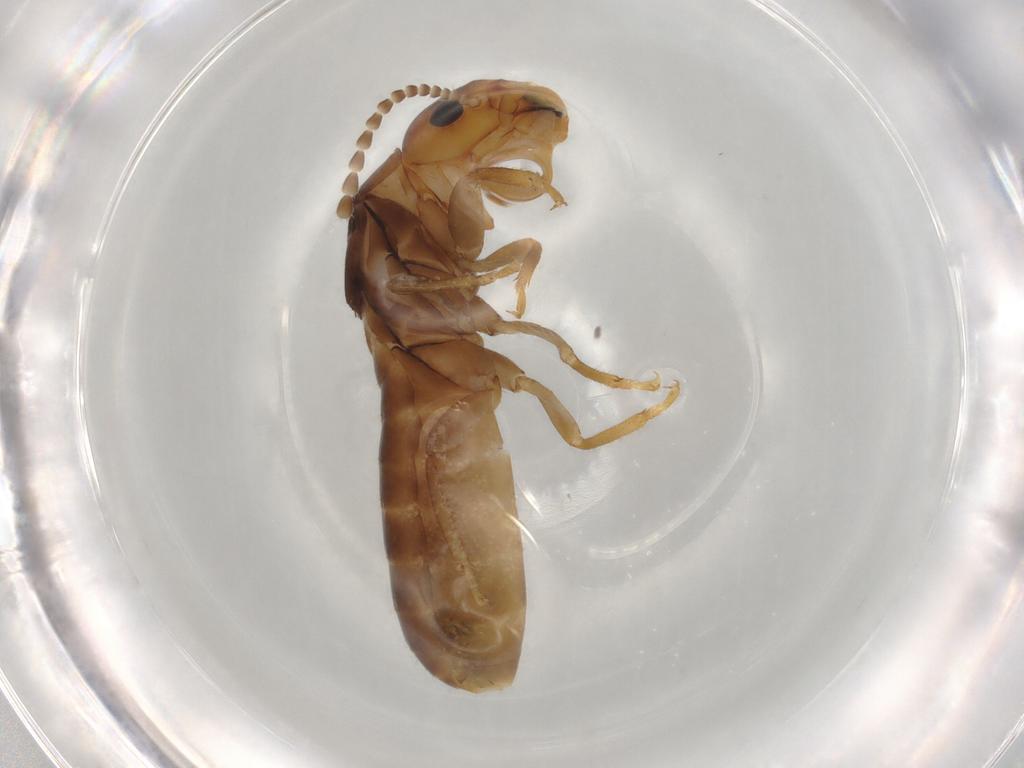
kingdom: Animalia
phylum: Arthropoda
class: Insecta
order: Blattodea
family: Kalotermitidae
